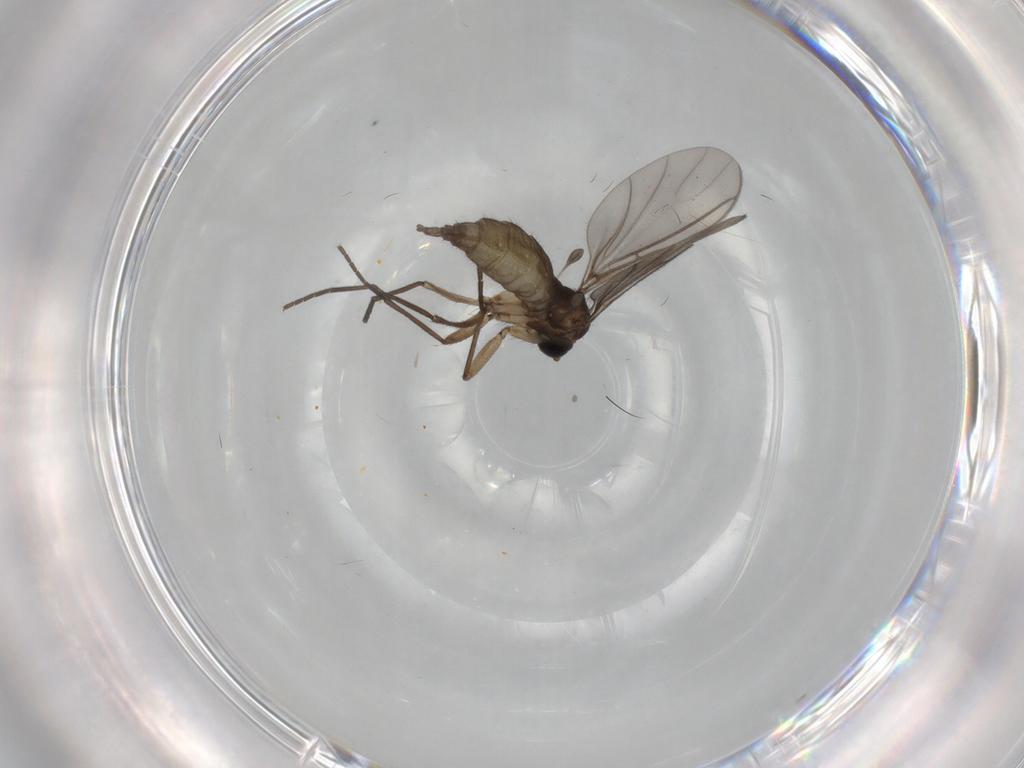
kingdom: Animalia
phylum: Arthropoda
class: Insecta
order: Diptera
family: Sciaridae
